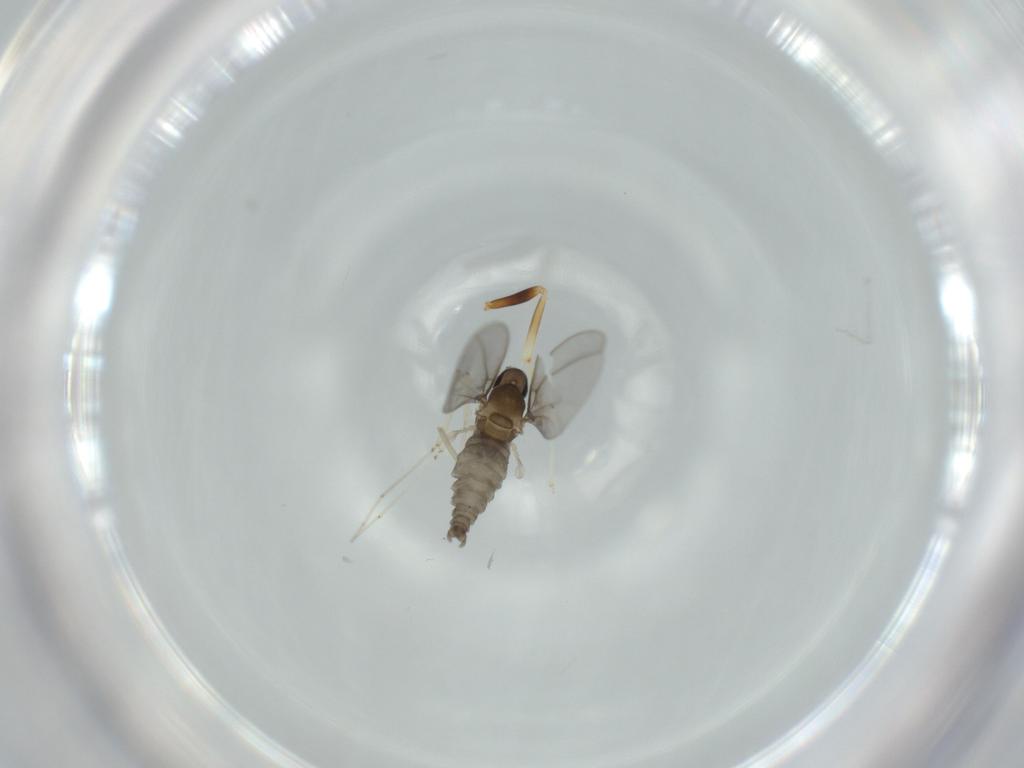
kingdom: Animalia
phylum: Arthropoda
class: Insecta
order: Diptera
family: Cecidomyiidae
